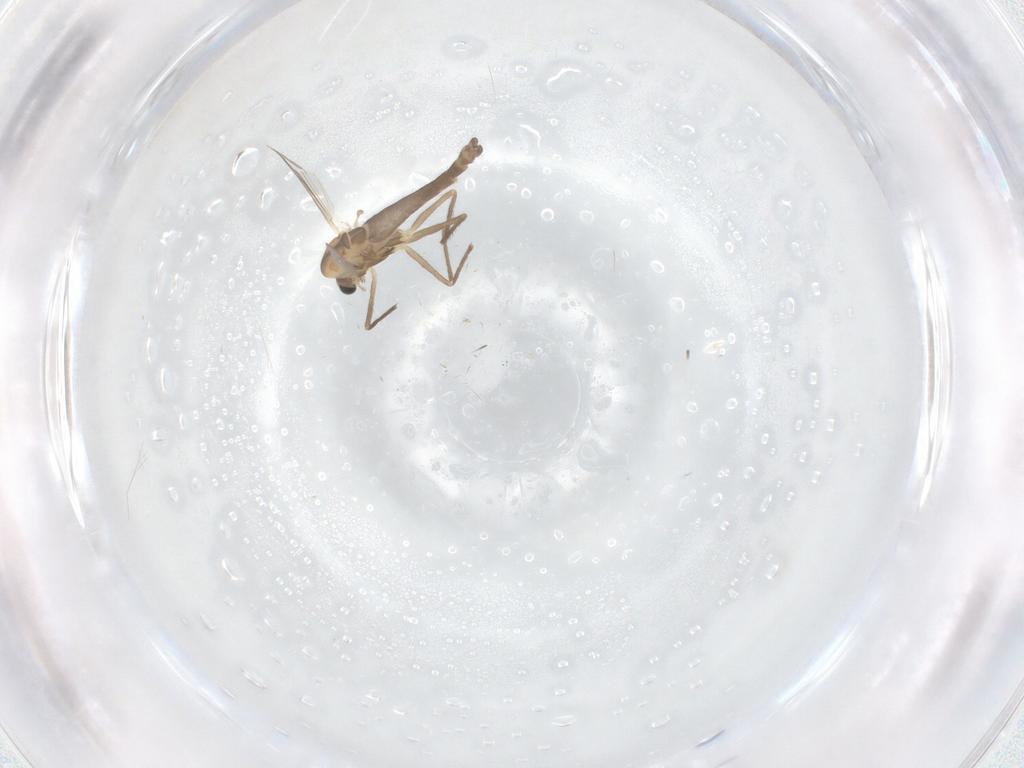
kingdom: Animalia
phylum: Arthropoda
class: Insecta
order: Diptera
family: Chironomidae
